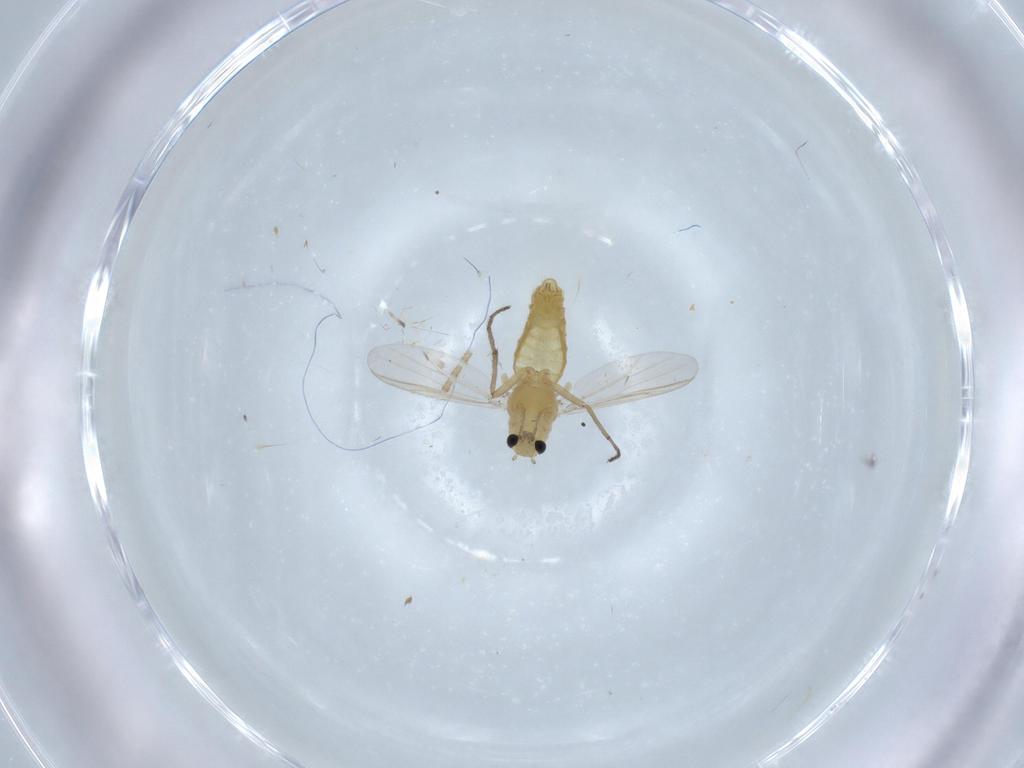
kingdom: Animalia
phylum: Arthropoda
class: Insecta
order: Diptera
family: Chironomidae
